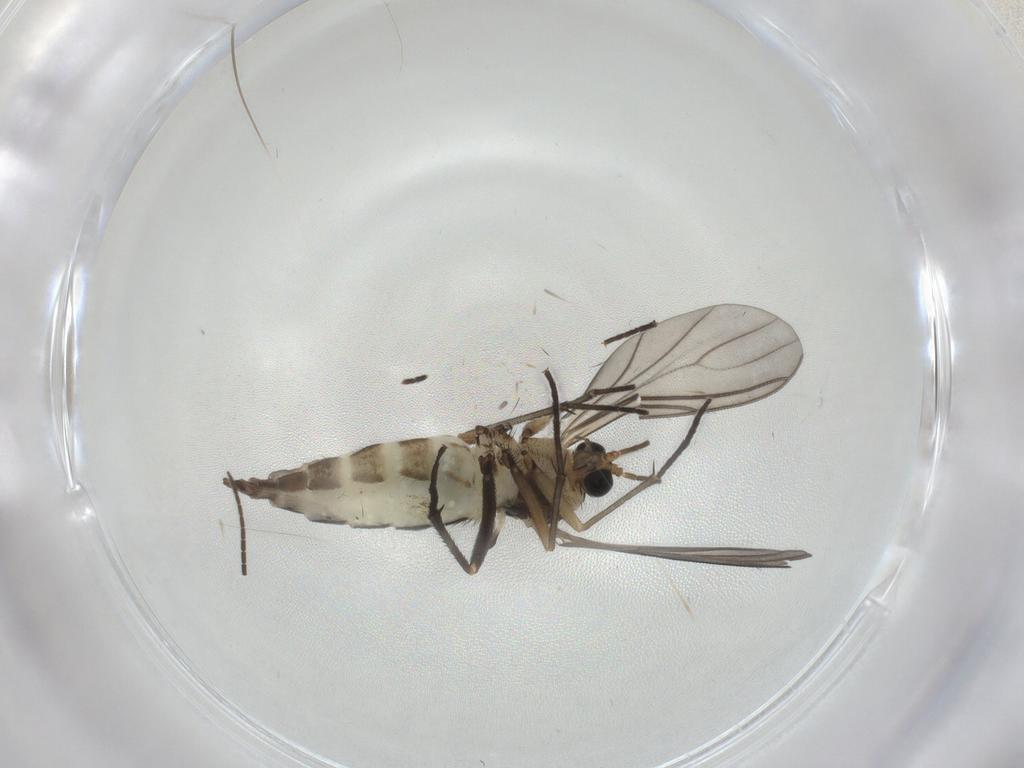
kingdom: Animalia
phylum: Arthropoda
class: Insecta
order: Diptera
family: Sciaridae
